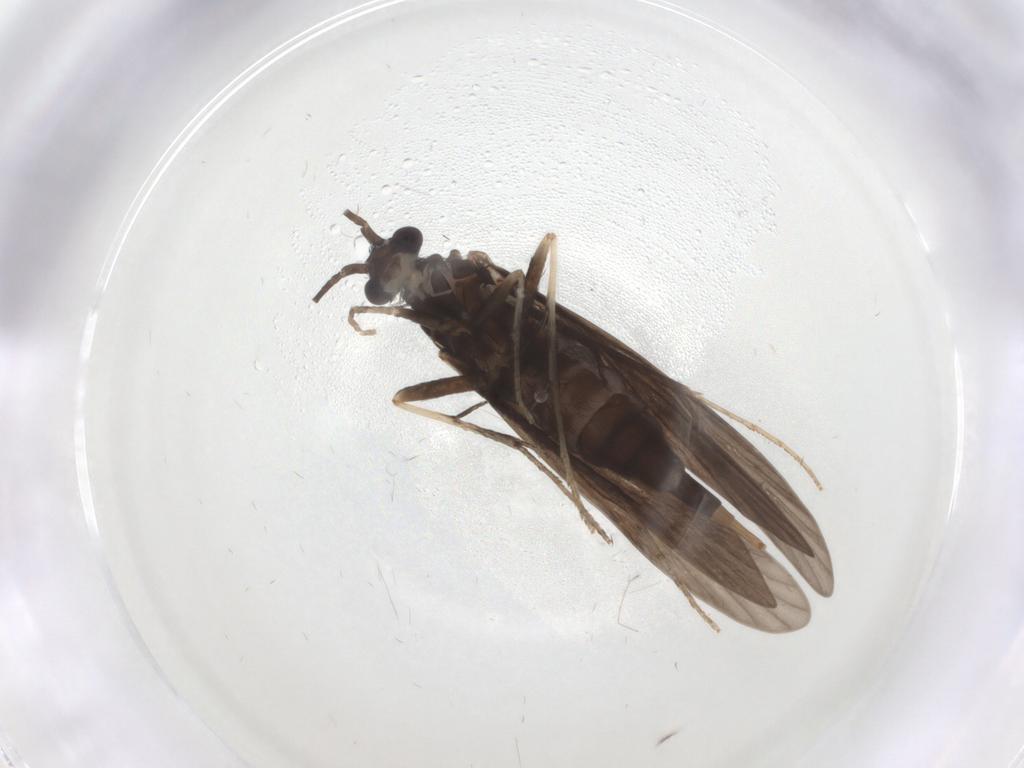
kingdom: Animalia
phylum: Arthropoda
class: Insecta
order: Trichoptera
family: Xiphocentronidae
